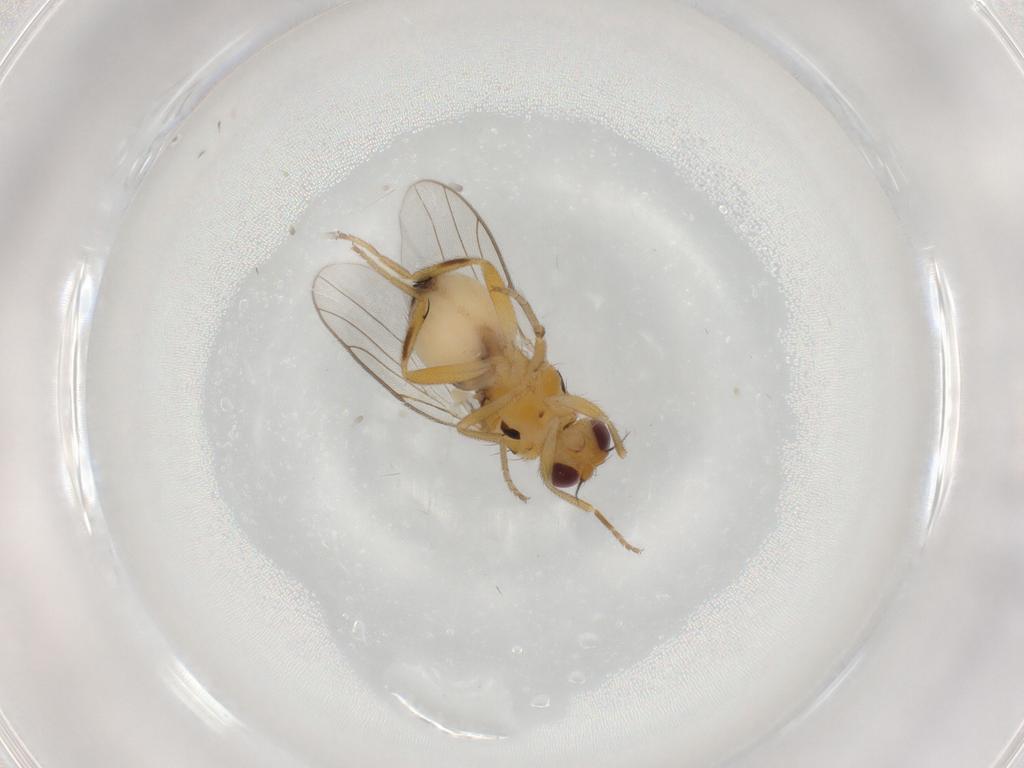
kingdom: Animalia
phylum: Arthropoda
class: Insecta
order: Diptera
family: Chloropidae
